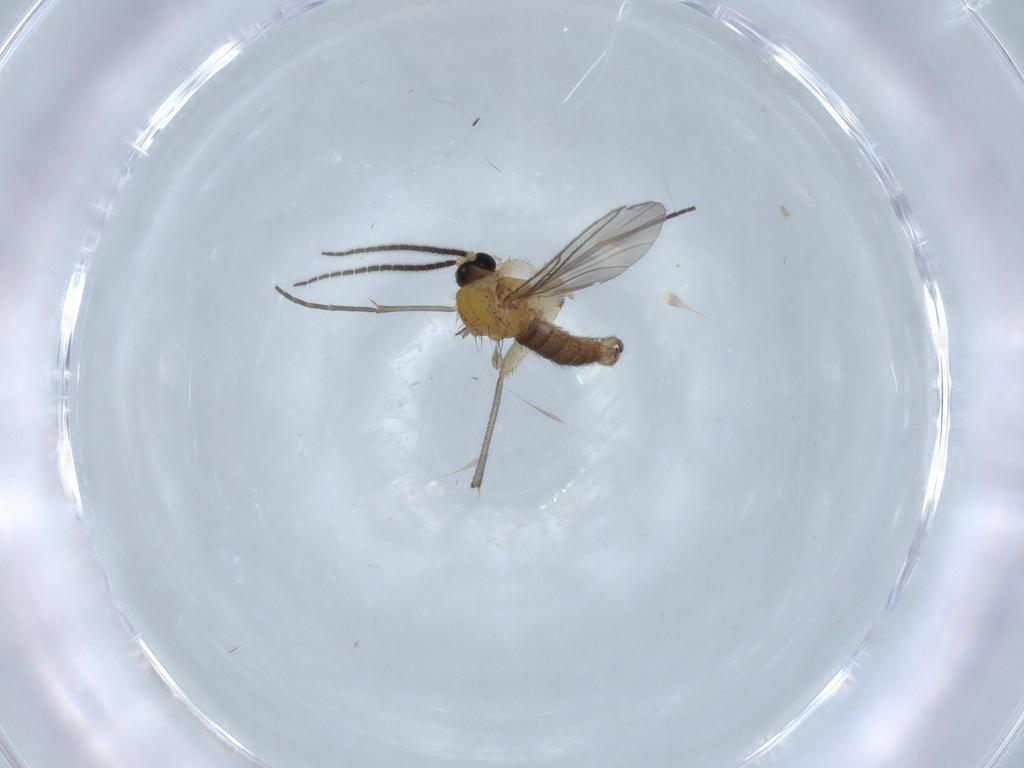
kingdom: Animalia
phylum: Arthropoda
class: Insecta
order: Diptera
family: Sciaridae
